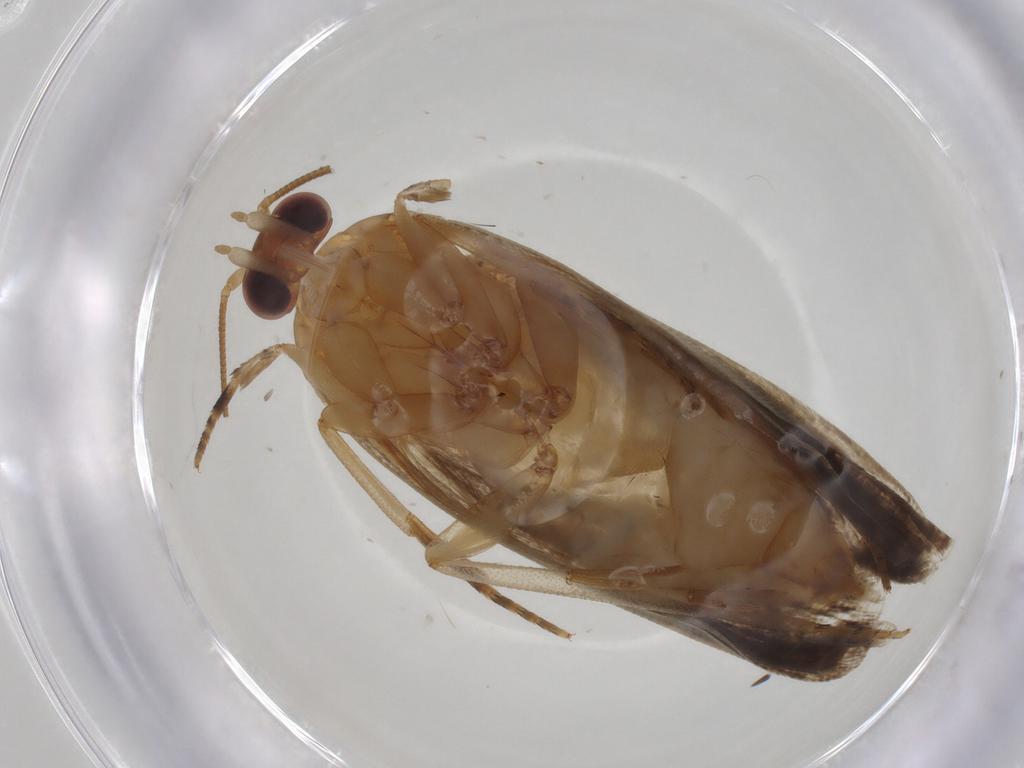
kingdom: Animalia
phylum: Arthropoda
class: Insecta
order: Lepidoptera
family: Tortricidae
